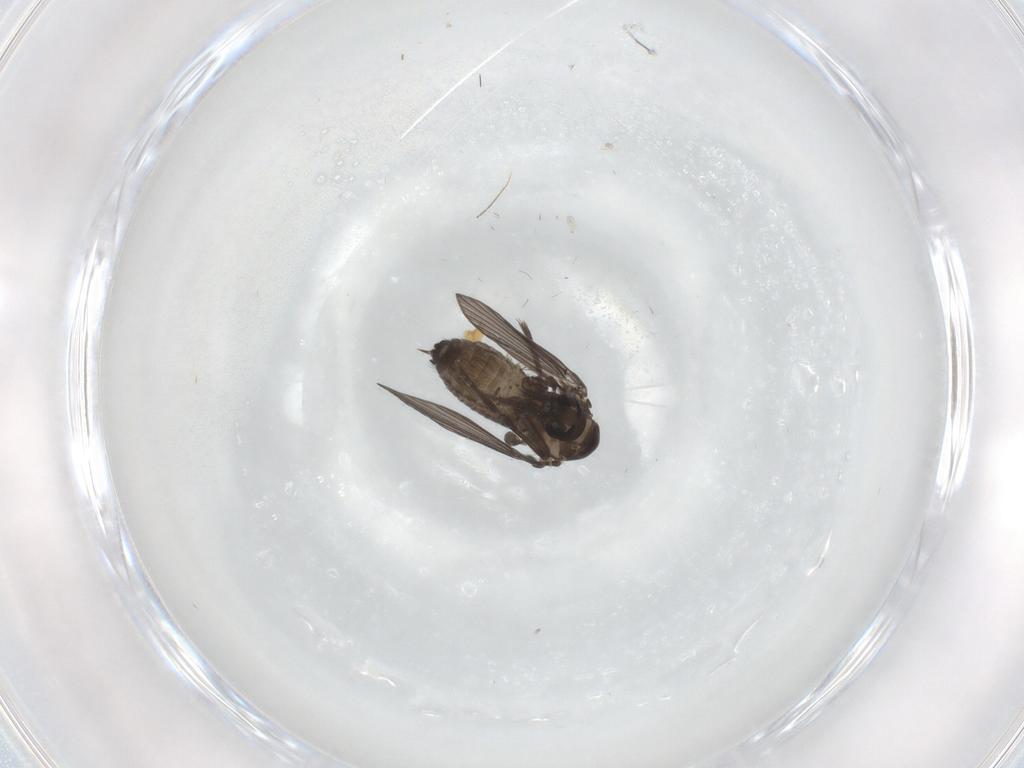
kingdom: Animalia
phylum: Arthropoda
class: Insecta
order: Diptera
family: Psychodidae
